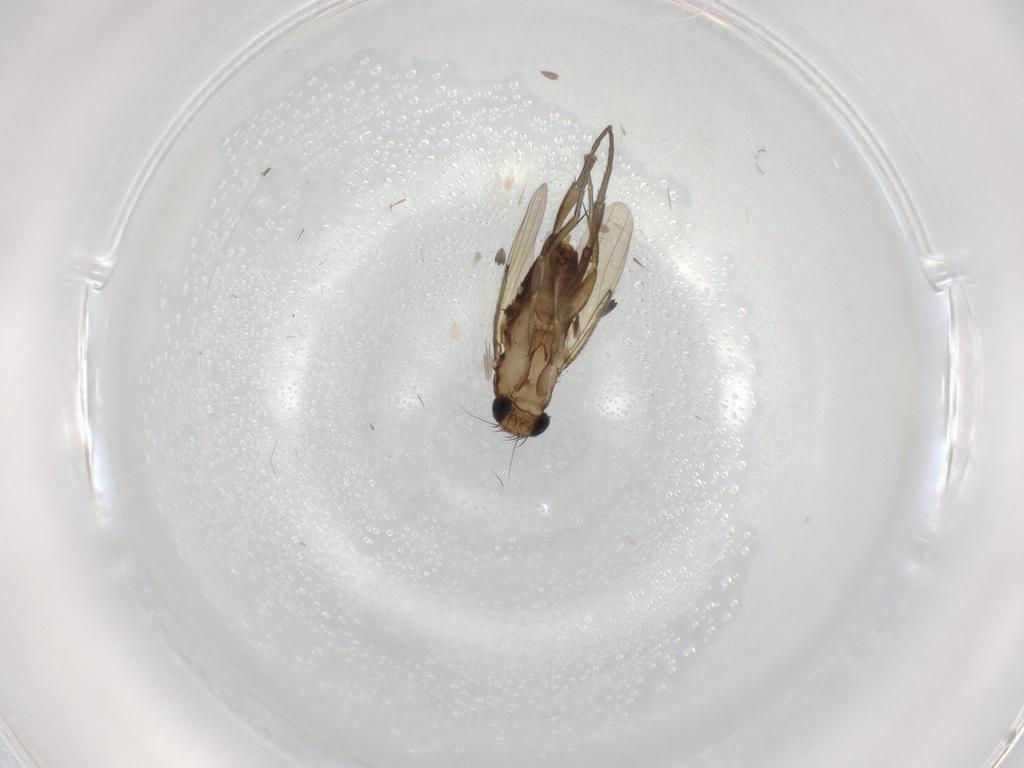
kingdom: Animalia
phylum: Arthropoda
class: Insecta
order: Diptera
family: Phoridae
